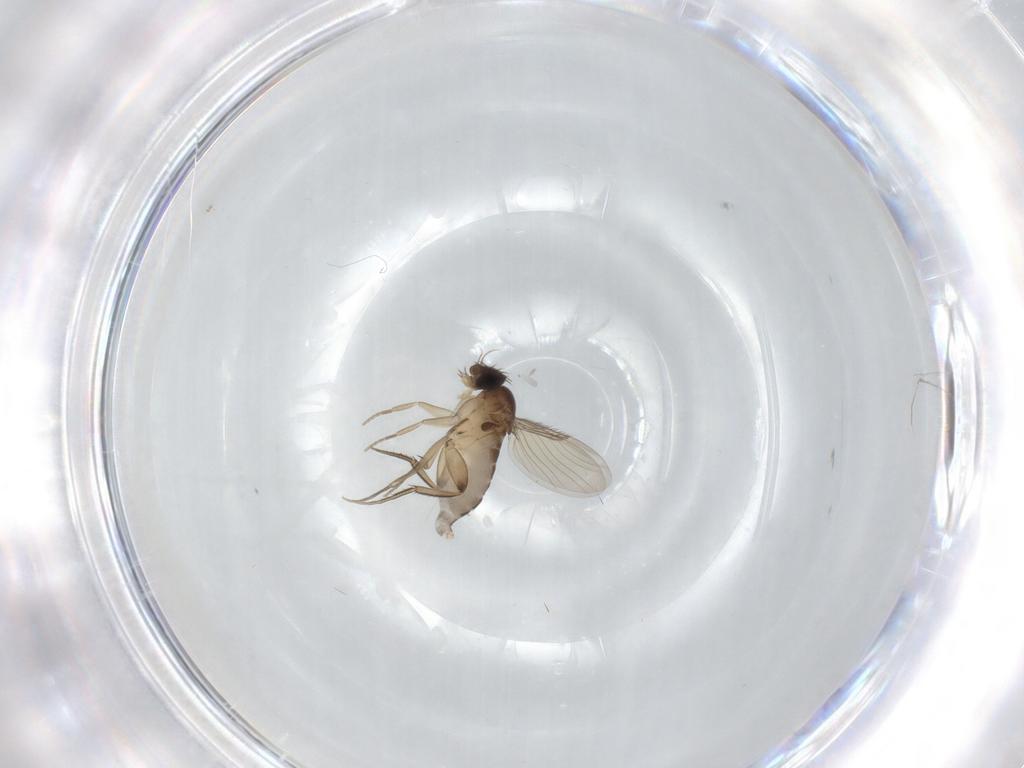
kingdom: Animalia
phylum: Arthropoda
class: Insecta
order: Diptera
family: Phoridae
